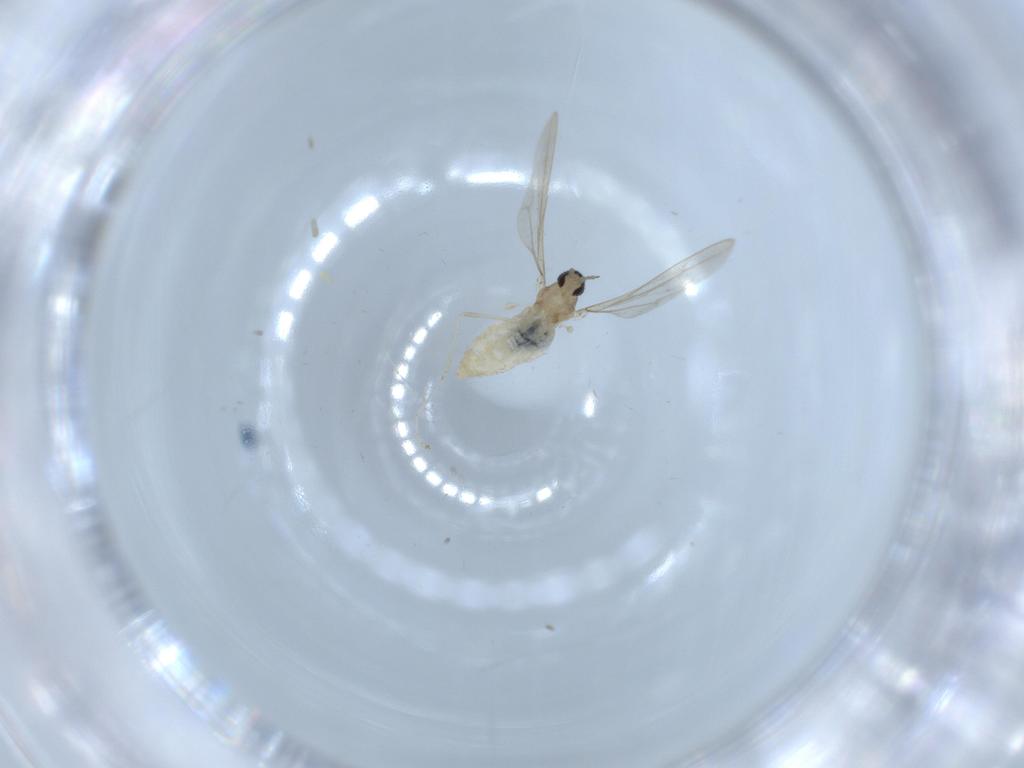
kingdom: Animalia
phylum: Arthropoda
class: Insecta
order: Diptera
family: Cecidomyiidae
